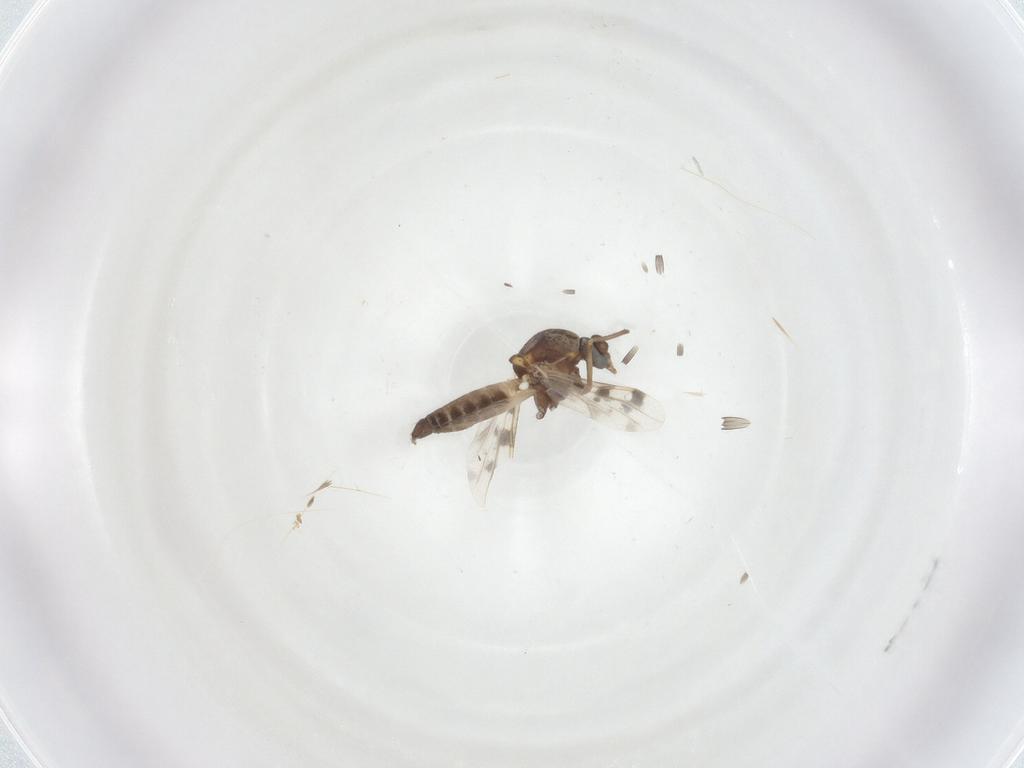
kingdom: Animalia
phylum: Arthropoda
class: Insecta
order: Diptera
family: Ceratopogonidae
